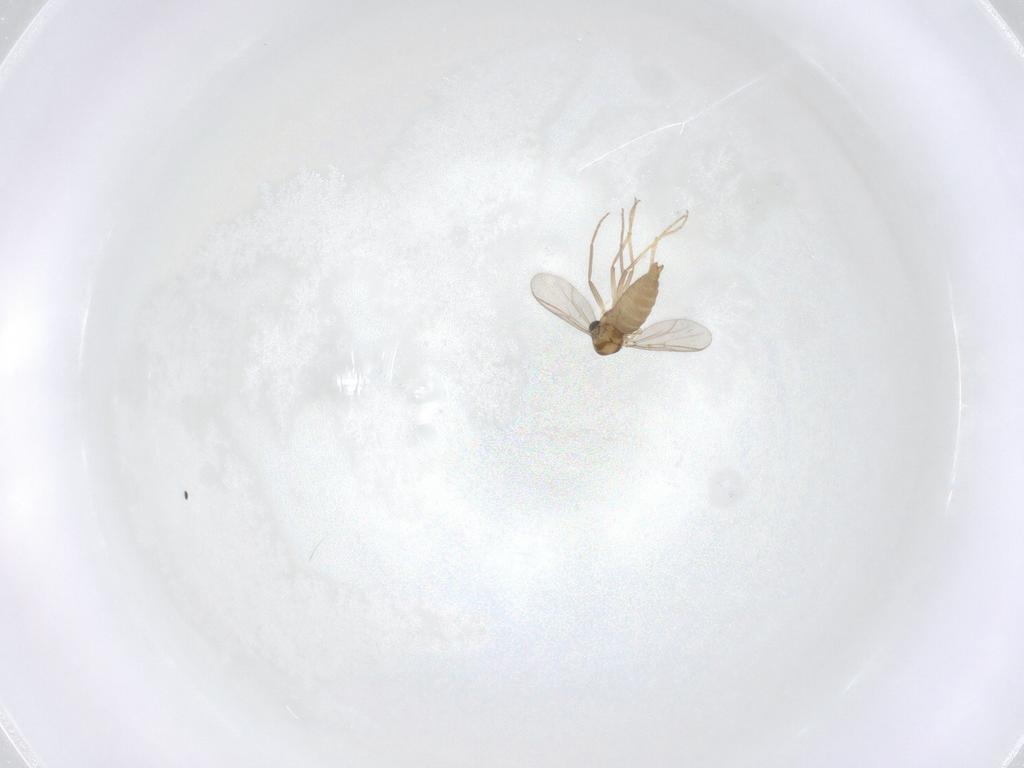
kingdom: Animalia
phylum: Arthropoda
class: Insecta
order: Diptera
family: Chironomidae
